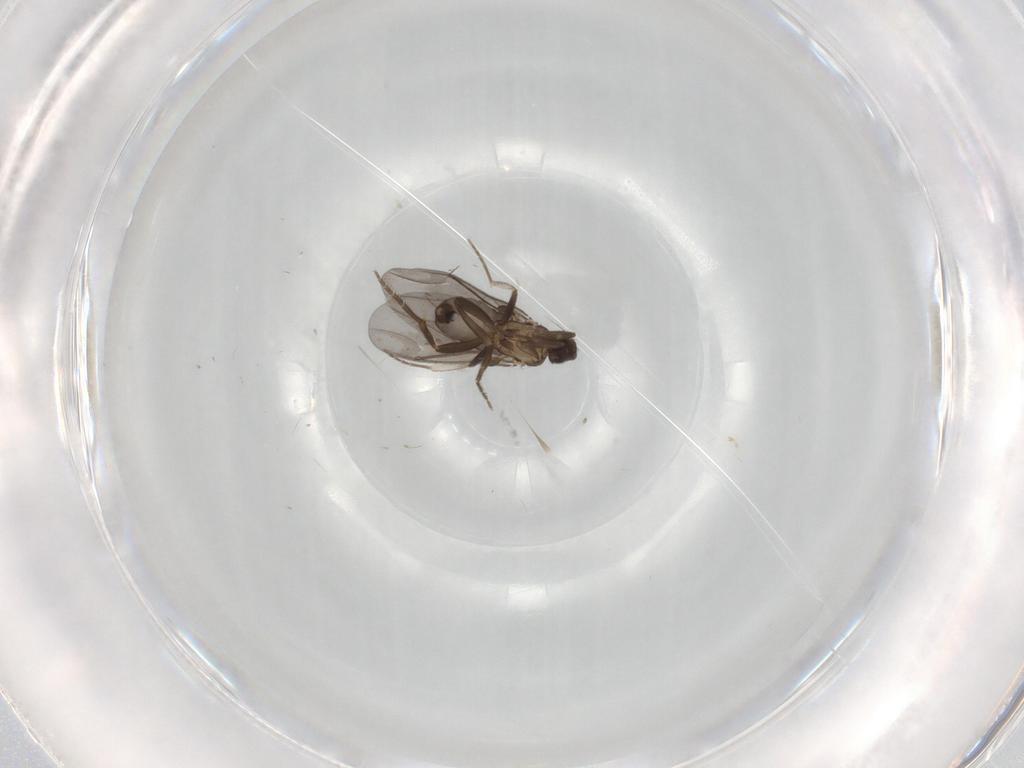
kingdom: Animalia
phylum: Arthropoda
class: Insecta
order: Diptera
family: Phoridae
